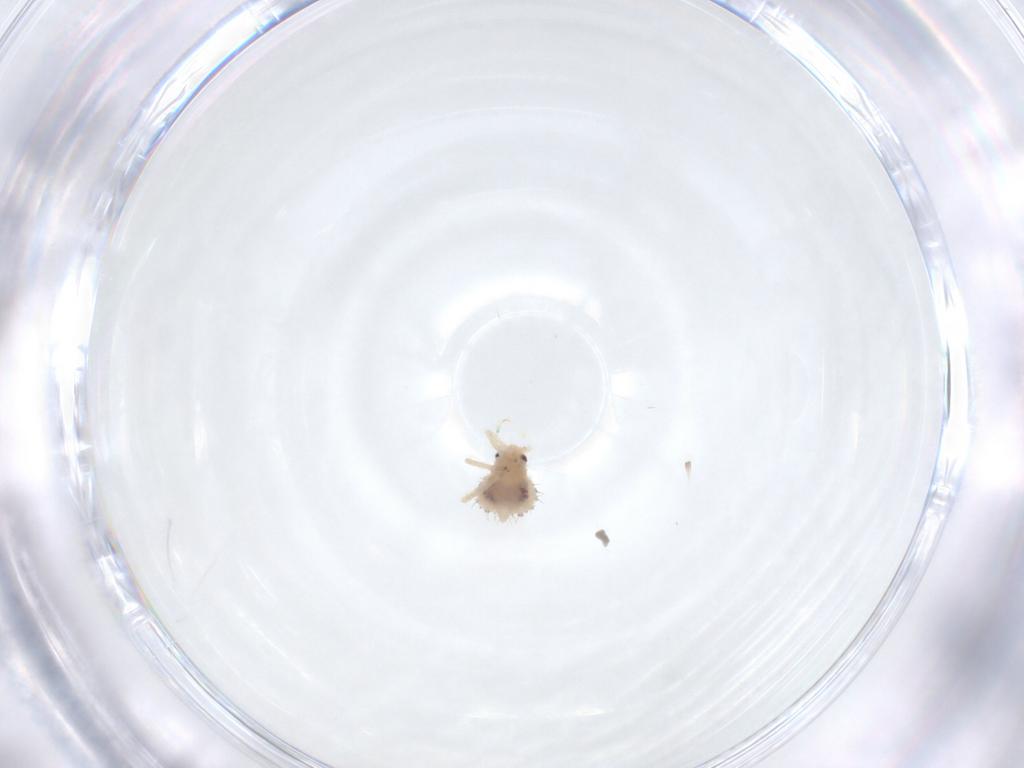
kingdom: Animalia
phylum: Arthropoda
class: Insecta
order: Hemiptera
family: Aphididae
